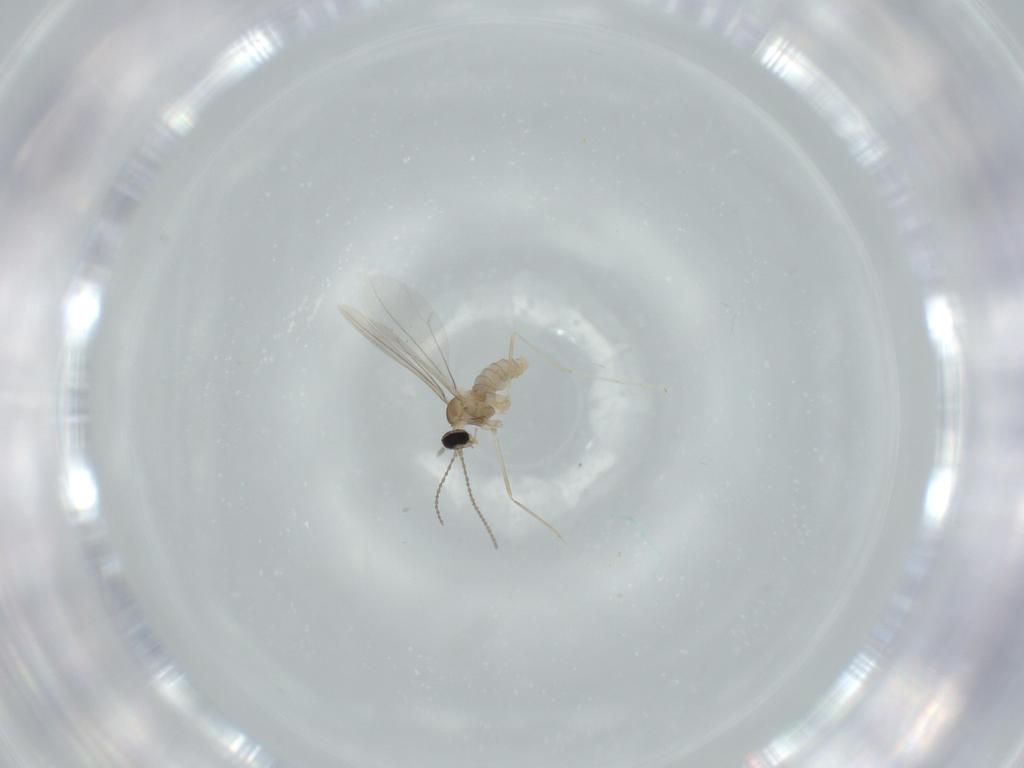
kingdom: Animalia
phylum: Arthropoda
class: Insecta
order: Diptera
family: Cecidomyiidae
